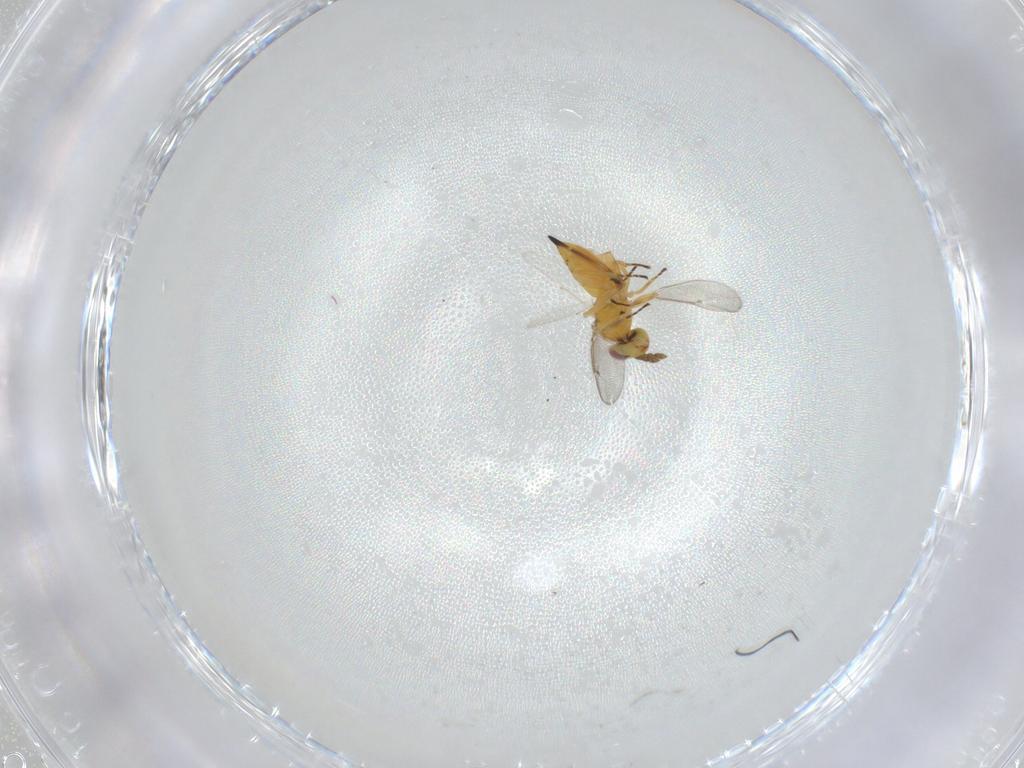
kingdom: Animalia
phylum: Arthropoda
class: Insecta
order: Hymenoptera
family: Eulophidae
